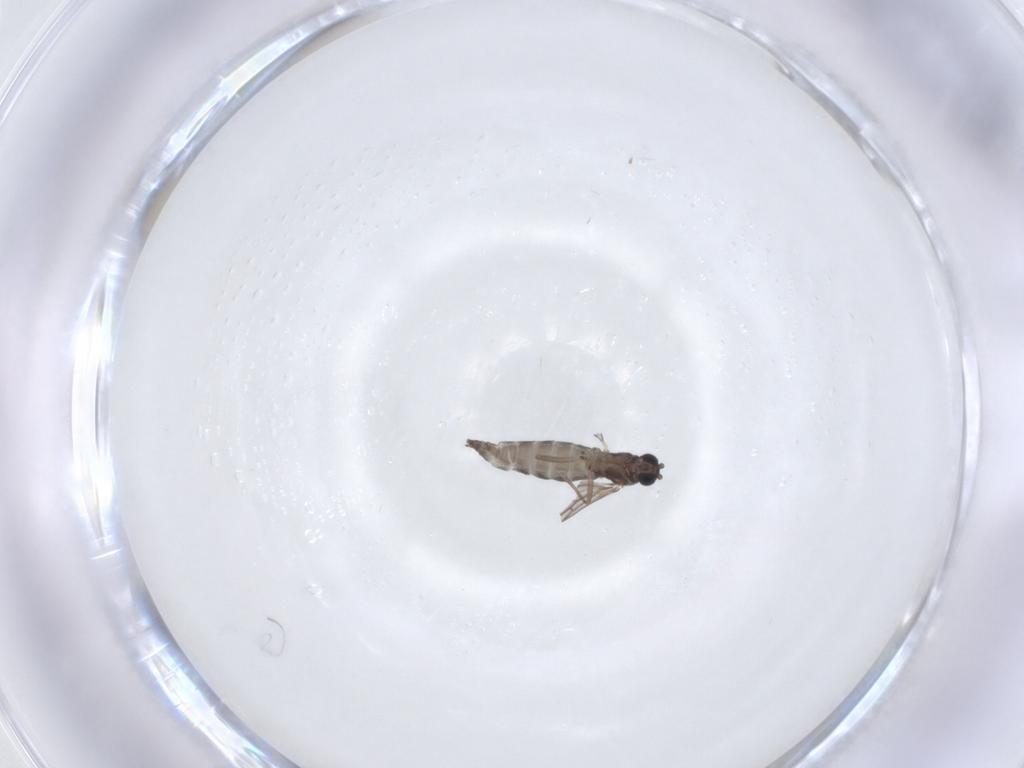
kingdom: Animalia
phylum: Arthropoda
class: Insecta
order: Diptera
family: Sciaridae
